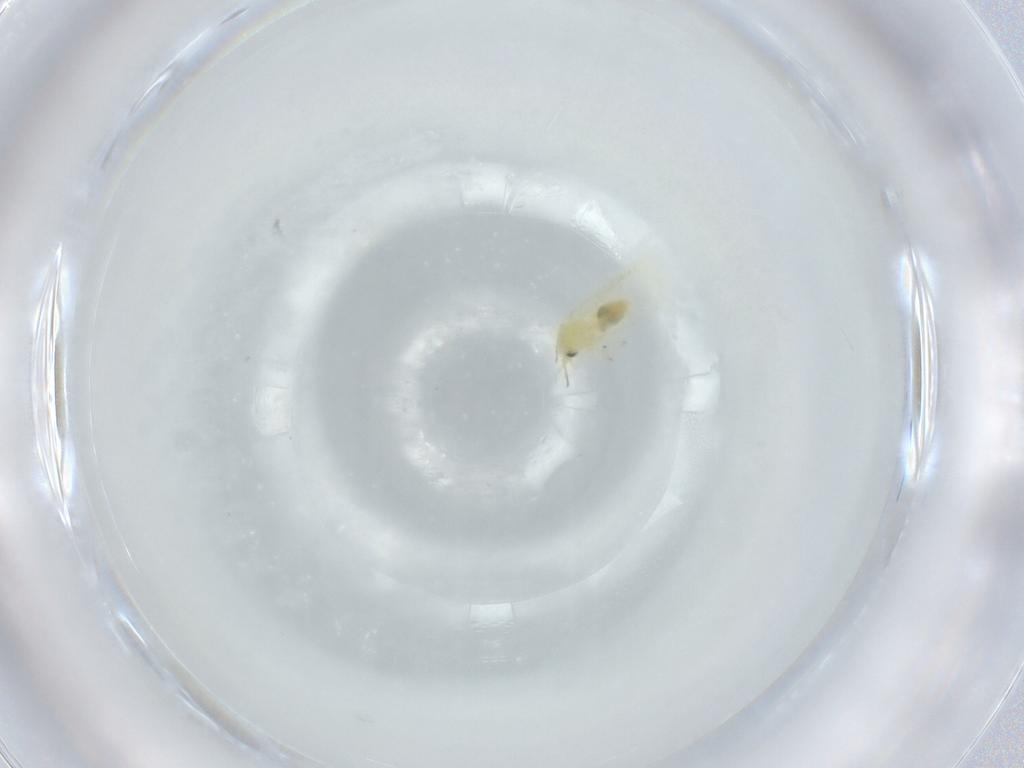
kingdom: Animalia
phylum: Arthropoda
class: Insecta
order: Hemiptera
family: Aleyrodidae
